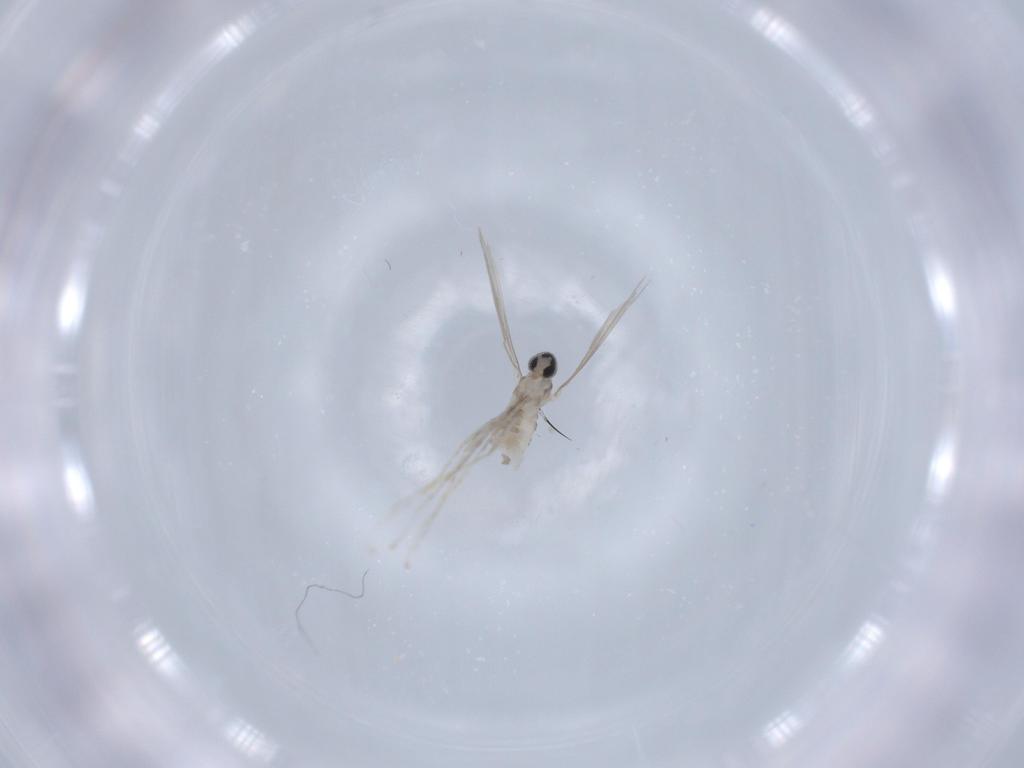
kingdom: Animalia
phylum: Arthropoda
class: Insecta
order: Diptera
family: Cecidomyiidae
